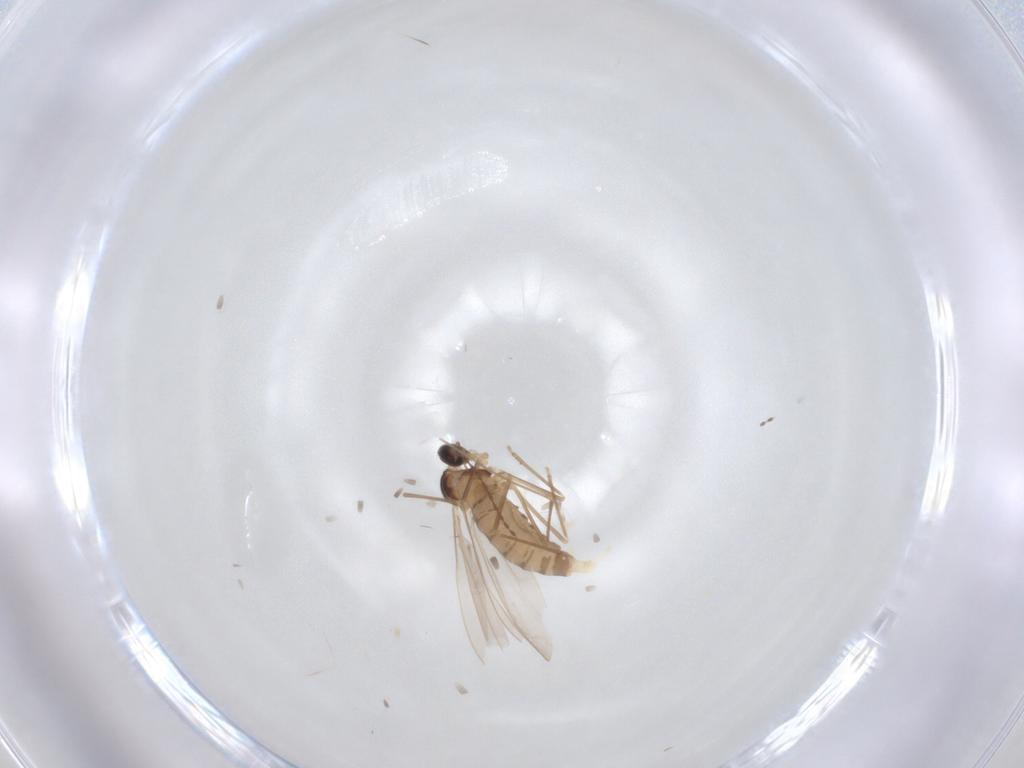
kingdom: Animalia
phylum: Arthropoda
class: Insecta
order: Diptera
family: Cecidomyiidae
